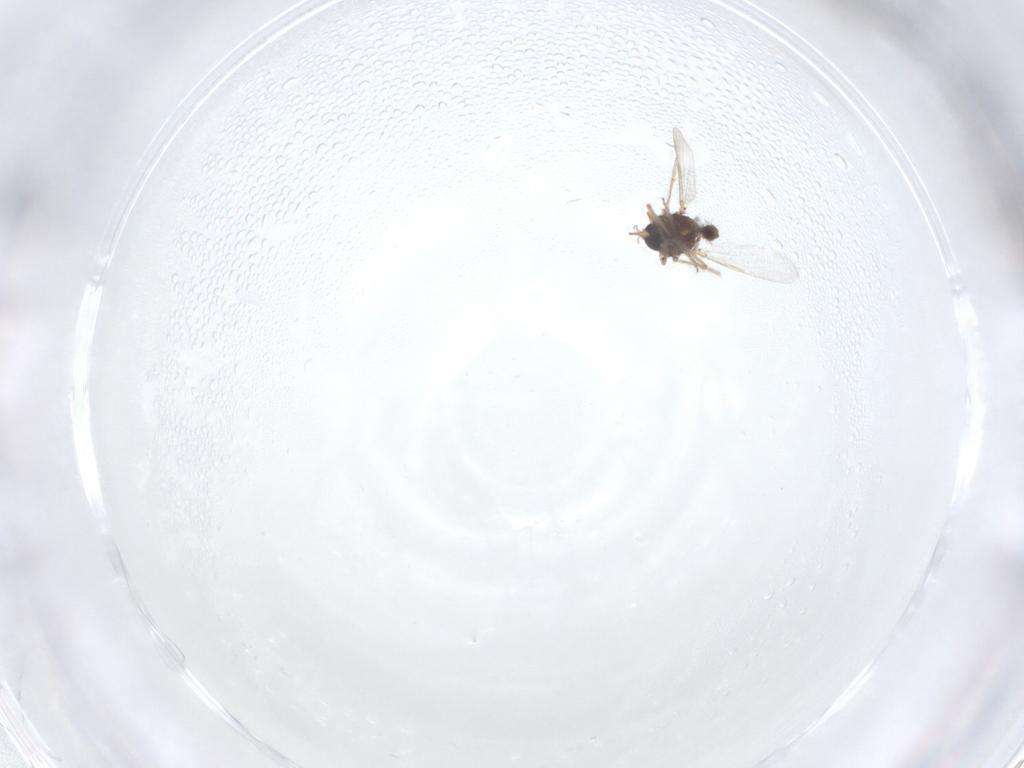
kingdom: Animalia
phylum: Arthropoda
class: Insecta
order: Diptera
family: Ceratopogonidae
